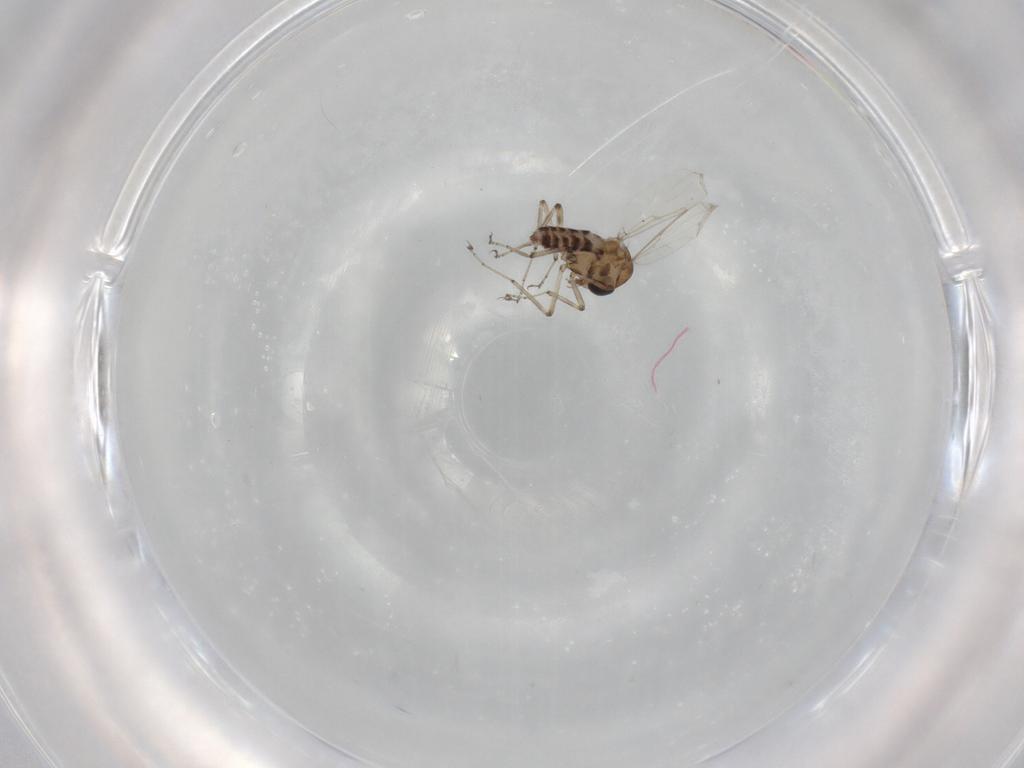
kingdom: Animalia
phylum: Arthropoda
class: Insecta
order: Diptera
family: Ceratopogonidae
